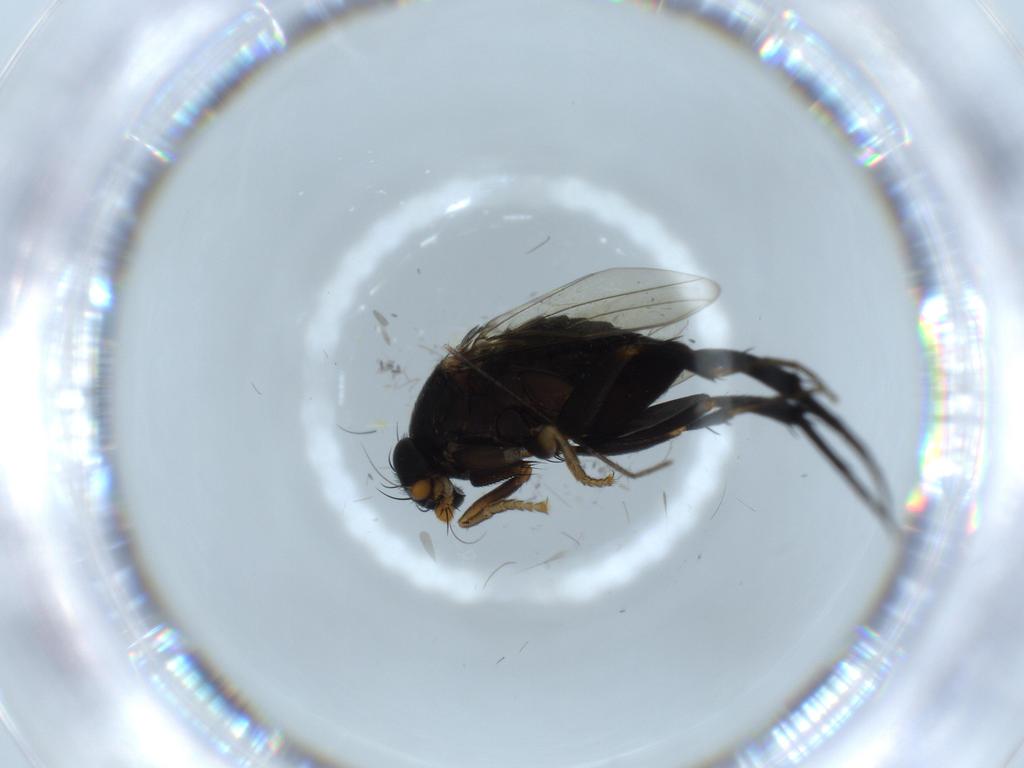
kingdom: Animalia
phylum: Arthropoda
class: Insecta
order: Diptera
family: Phoridae
